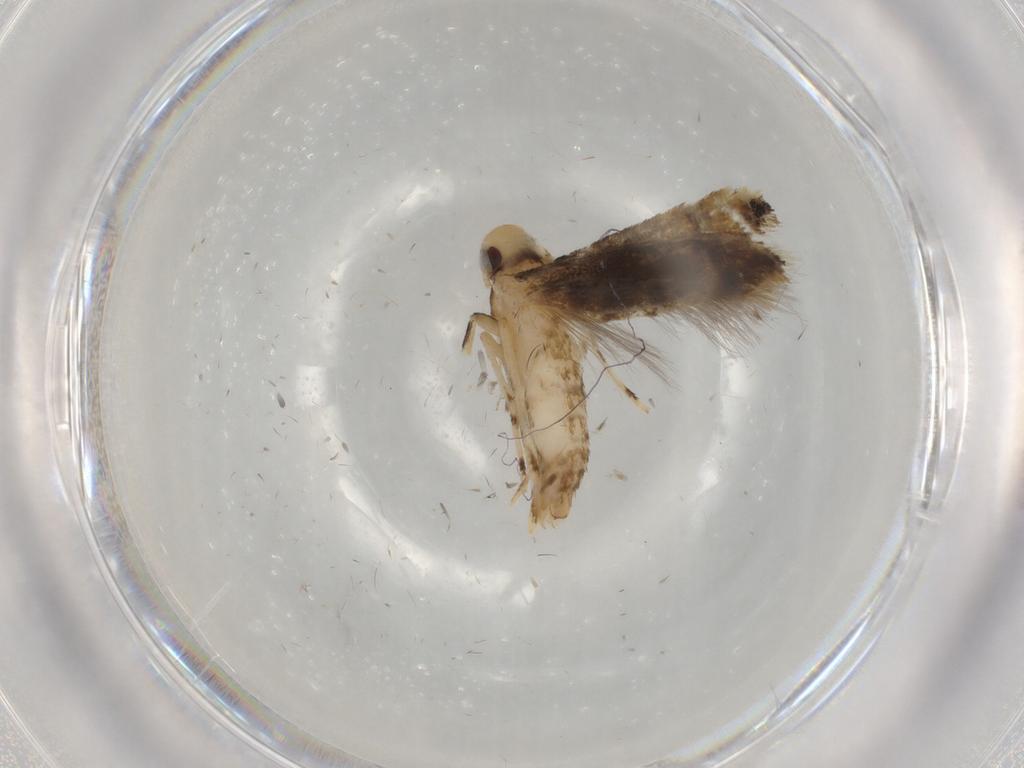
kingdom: Animalia
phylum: Arthropoda
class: Insecta
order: Lepidoptera
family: Momphidae
